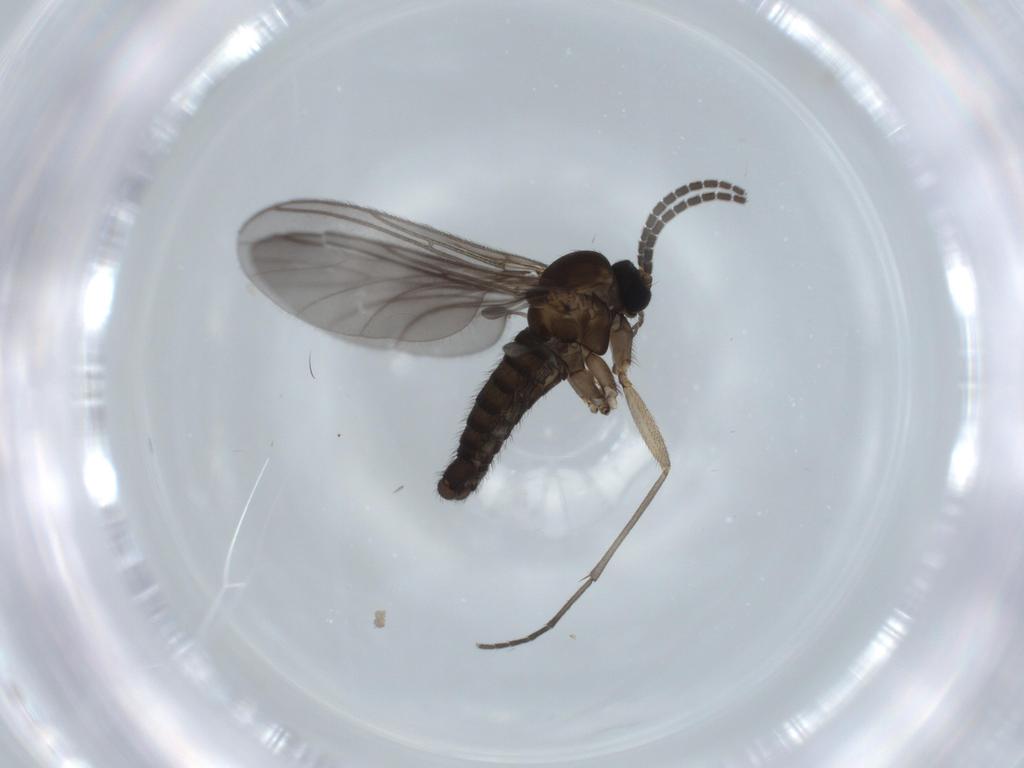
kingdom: Animalia
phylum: Arthropoda
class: Insecta
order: Diptera
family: Sciaridae
